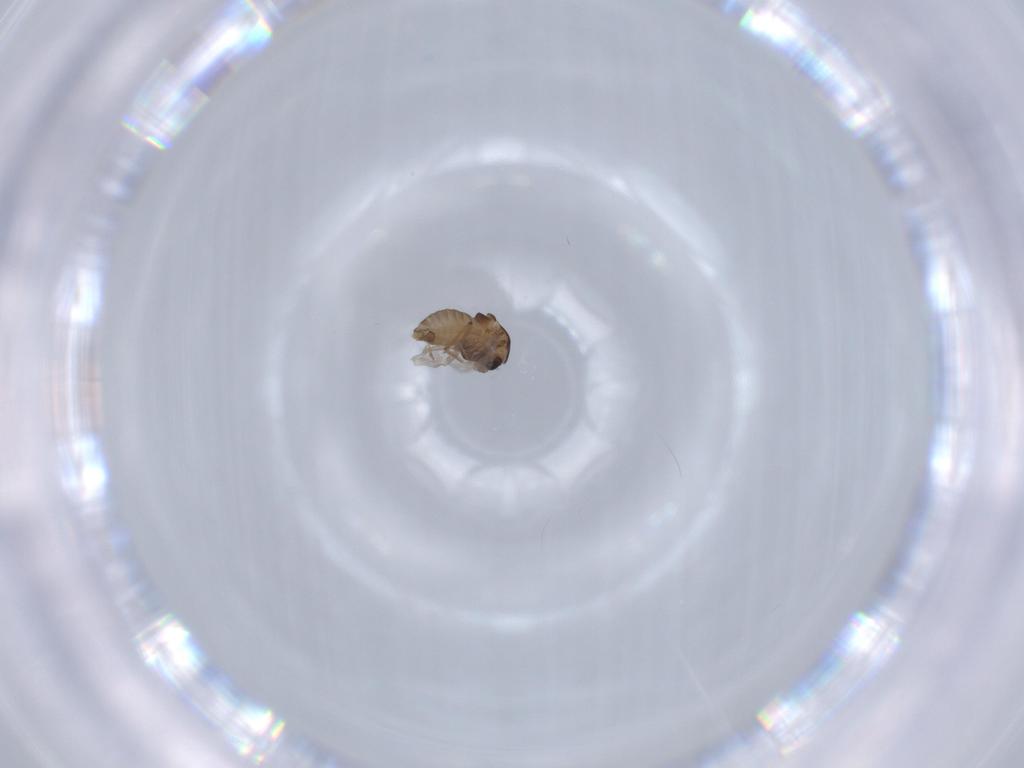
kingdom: Animalia
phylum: Arthropoda
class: Insecta
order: Diptera
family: Chironomidae
